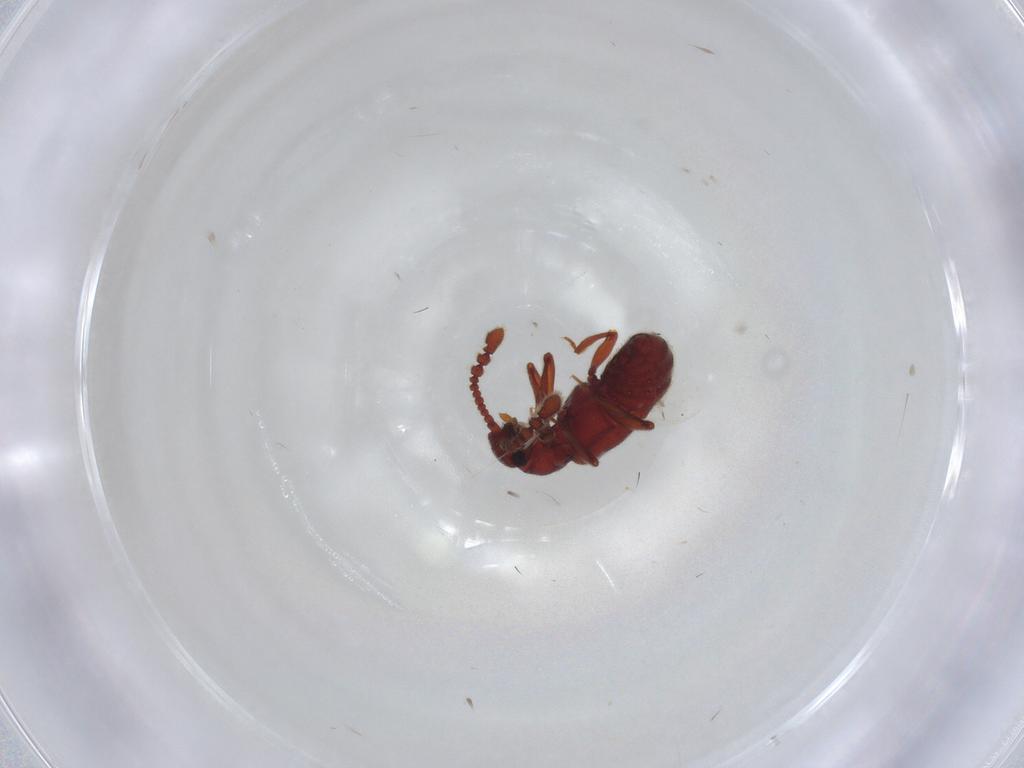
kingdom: Animalia
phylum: Arthropoda
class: Insecta
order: Coleoptera
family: Staphylinidae
